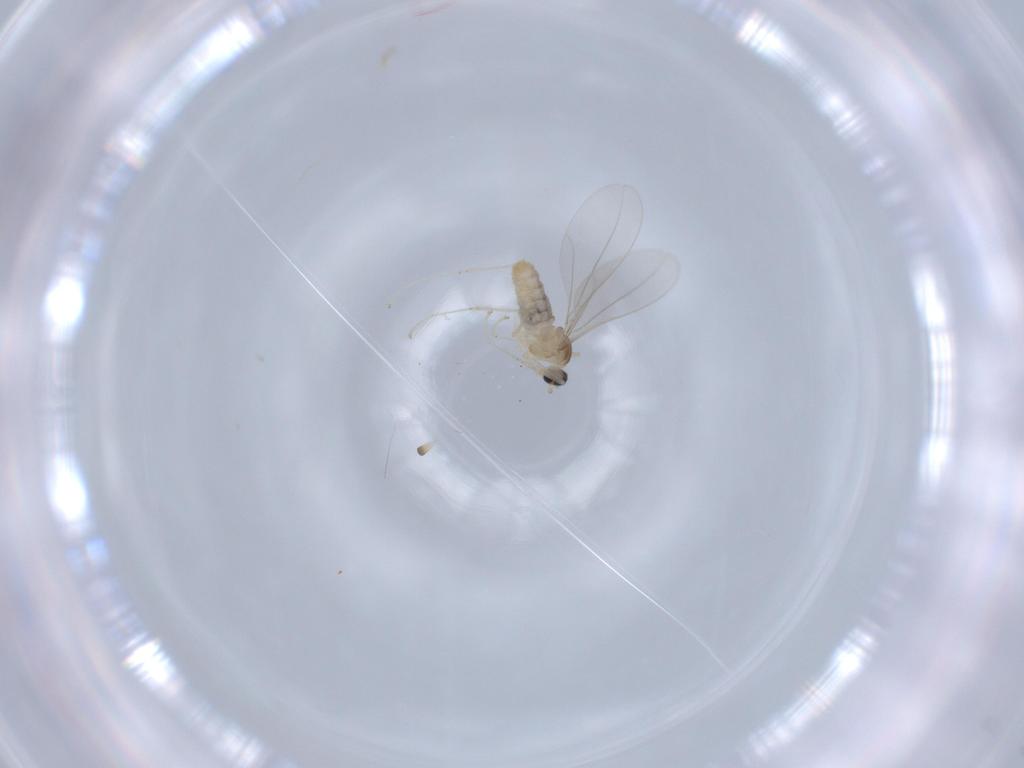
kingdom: Animalia
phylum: Arthropoda
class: Insecta
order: Diptera
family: Cecidomyiidae
